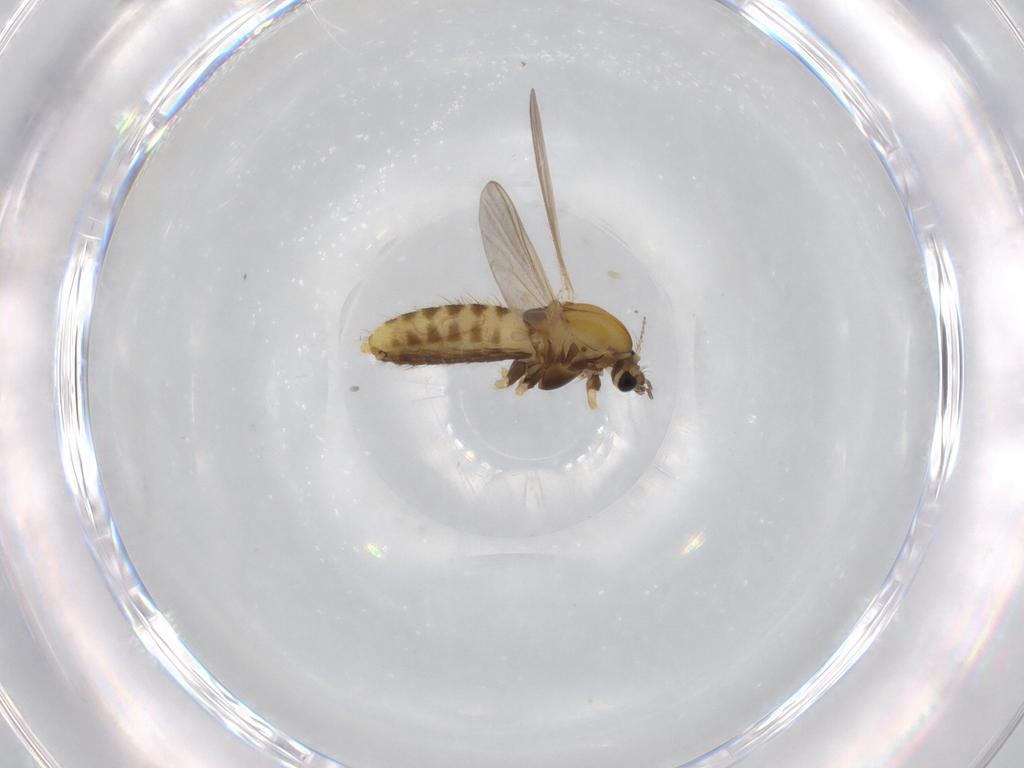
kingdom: Animalia
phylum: Arthropoda
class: Insecta
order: Diptera
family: Chironomidae
